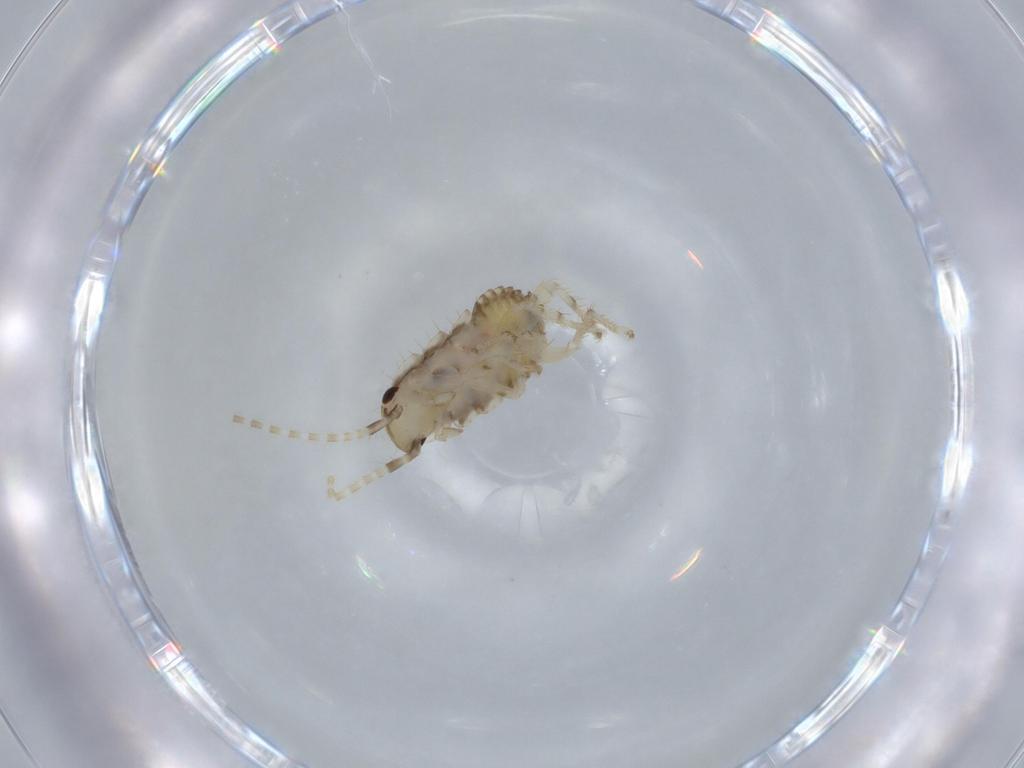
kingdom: Animalia
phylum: Arthropoda
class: Insecta
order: Blattodea
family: Ectobiidae
